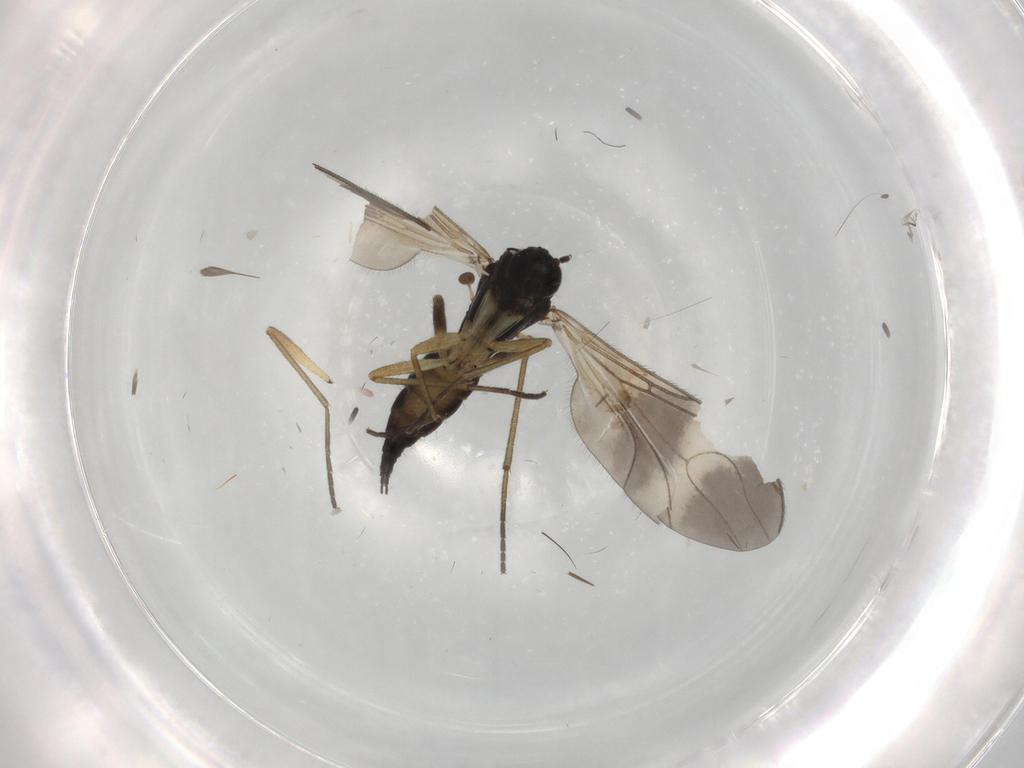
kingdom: Animalia
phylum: Arthropoda
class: Insecta
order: Diptera
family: Sciaridae
